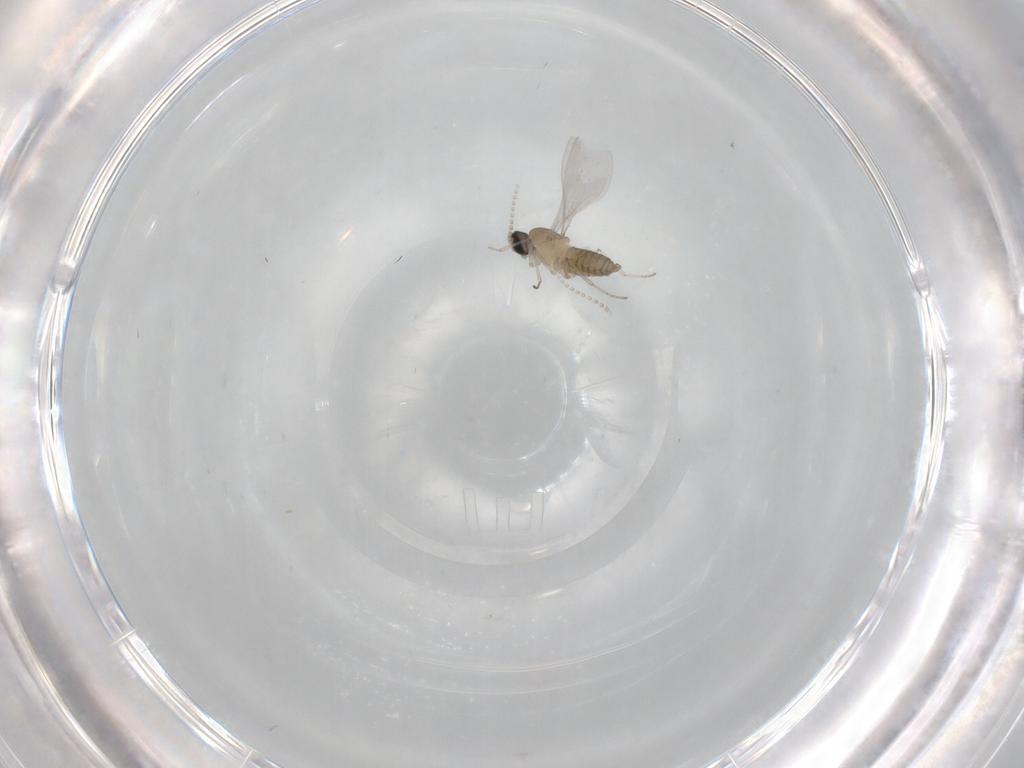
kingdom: Animalia
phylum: Arthropoda
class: Insecta
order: Diptera
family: Cecidomyiidae
